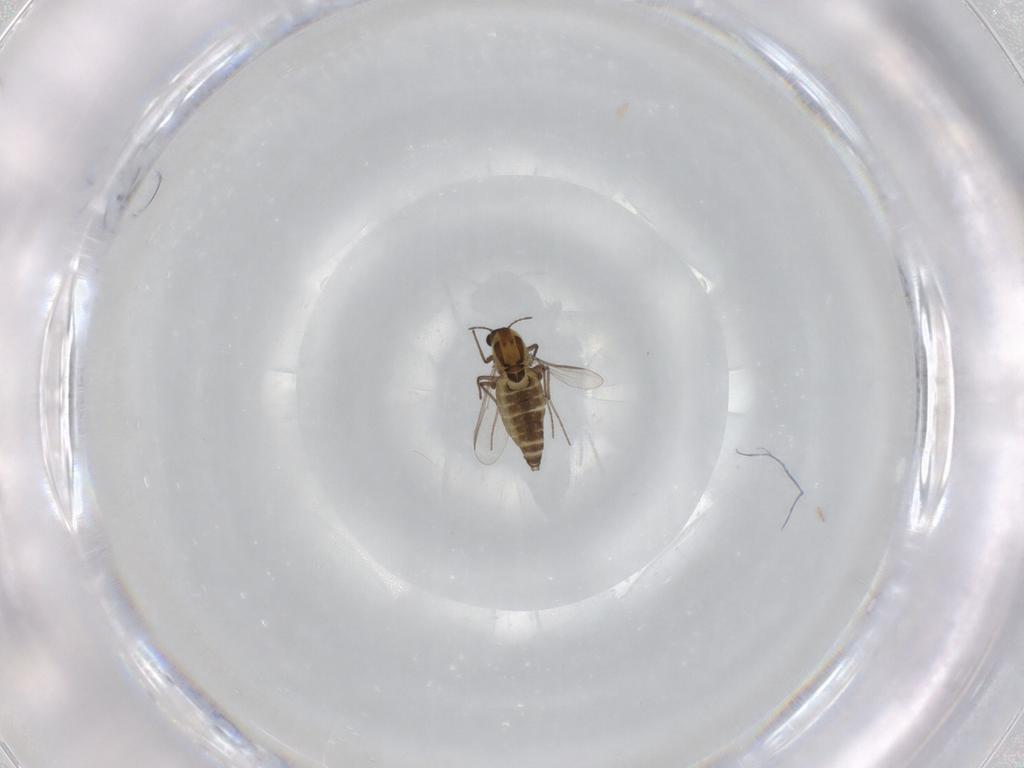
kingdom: Animalia
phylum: Arthropoda
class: Insecta
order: Diptera
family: Chironomidae
